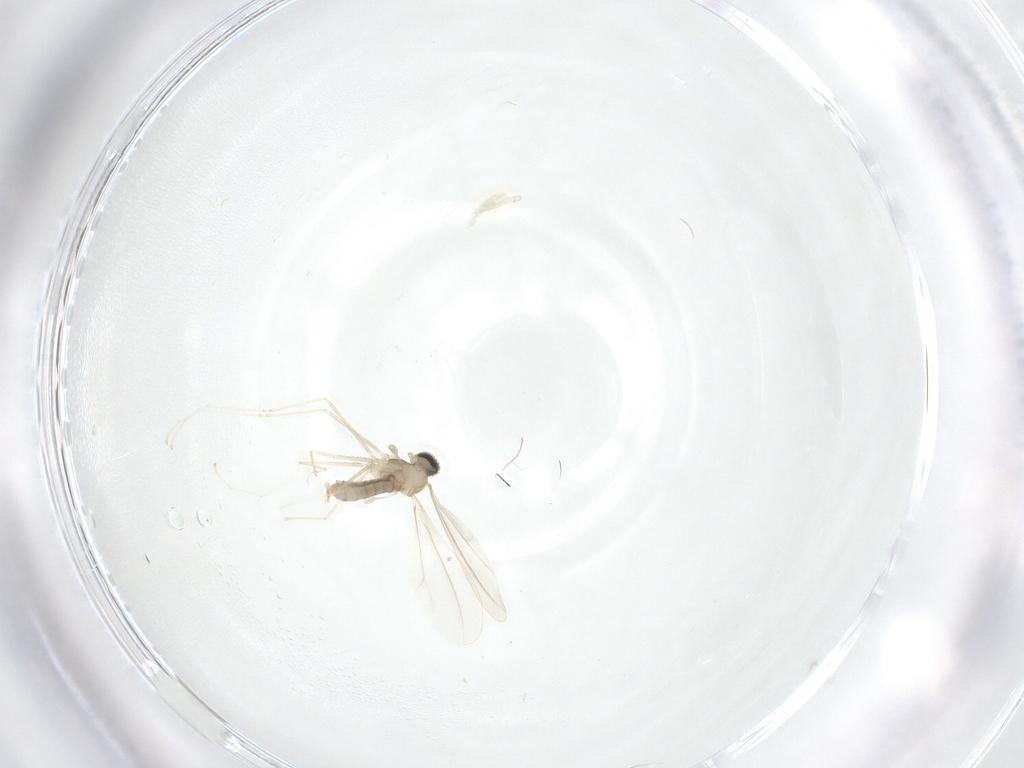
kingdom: Animalia
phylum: Arthropoda
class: Insecta
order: Diptera
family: Cecidomyiidae
